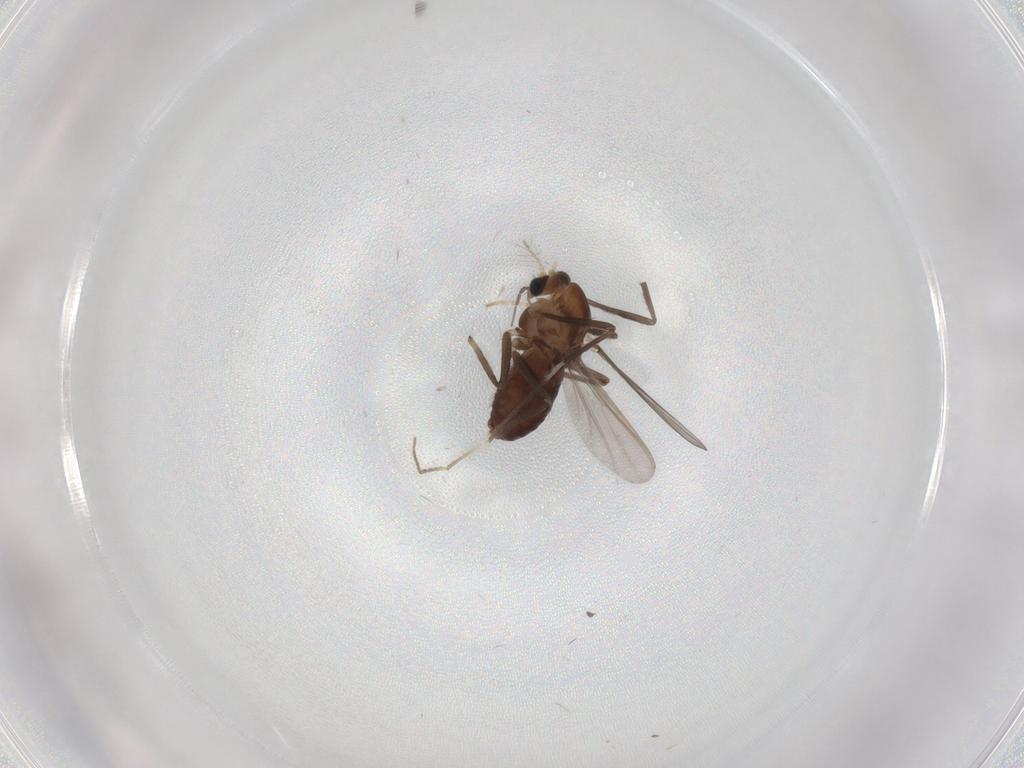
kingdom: Animalia
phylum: Arthropoda
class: Insecta
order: Diptera
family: Chironomidae
